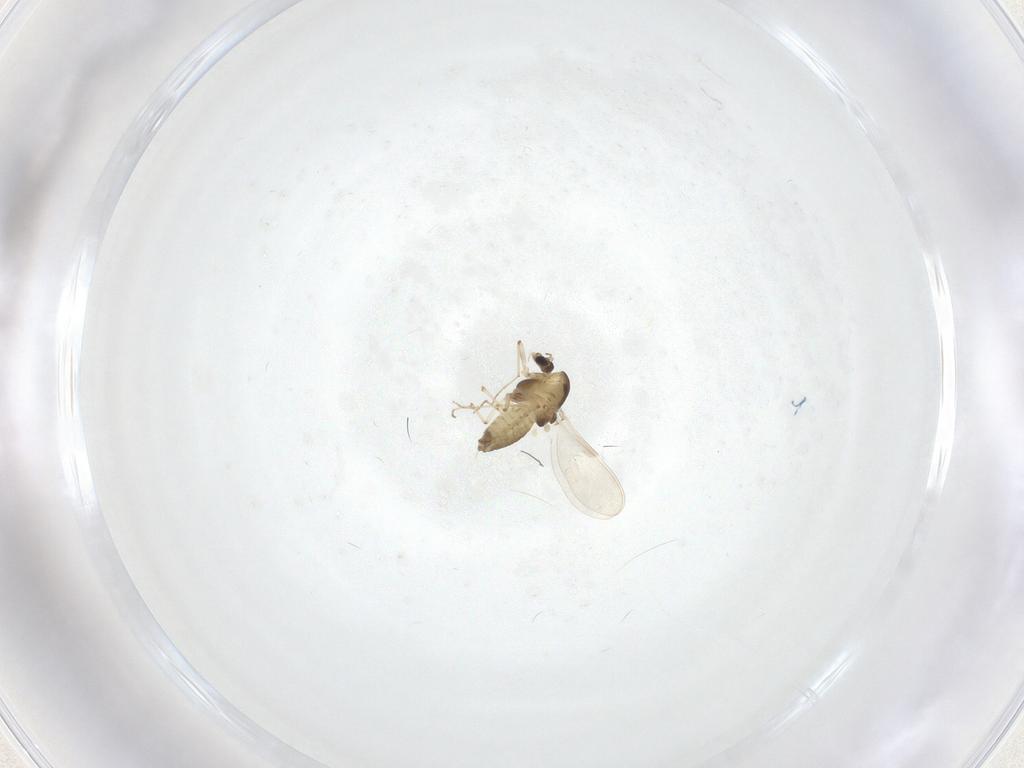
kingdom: Animalia
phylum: Arthropoda
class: Insecta
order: Diptera
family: Chironomidae
